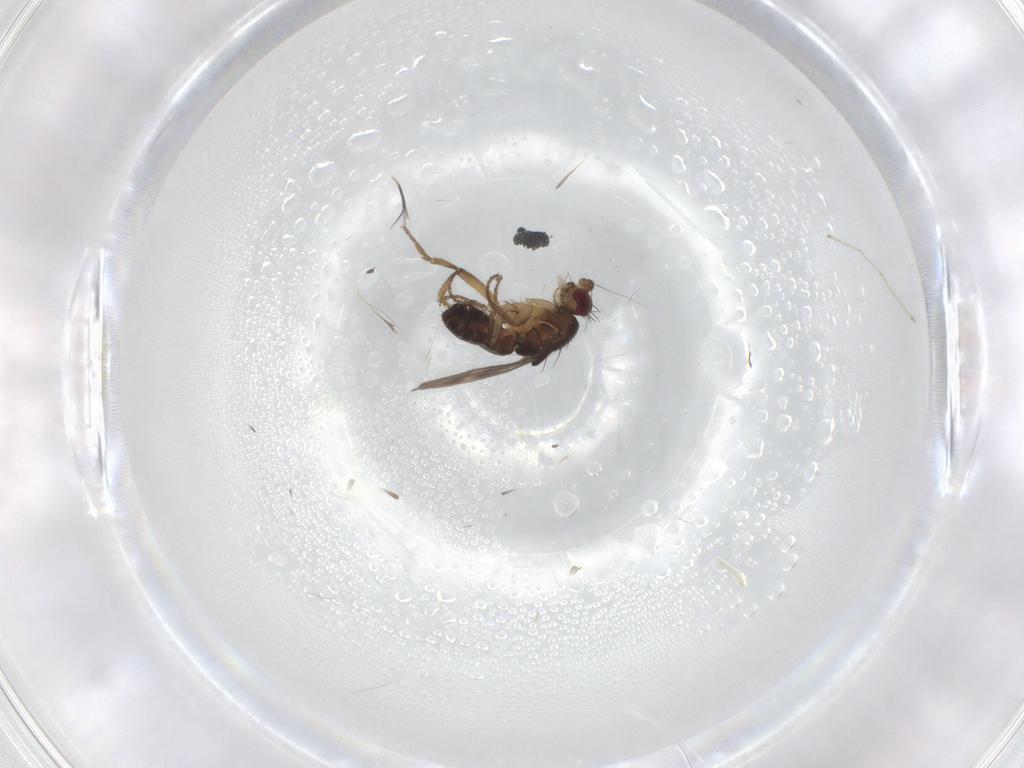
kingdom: Animalia
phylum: Arthropoda
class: Insecta
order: Diptera
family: Sphaeroceridae
